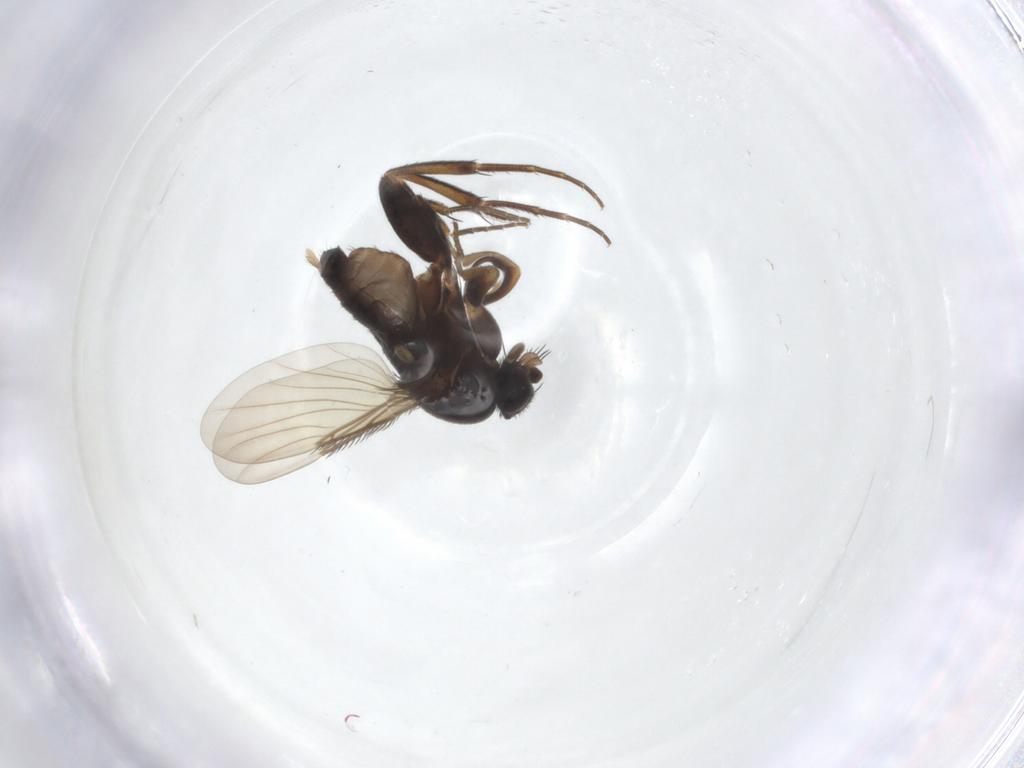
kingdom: Animalia
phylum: Arthropoda
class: Insecta
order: Diptera
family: Phoridae
